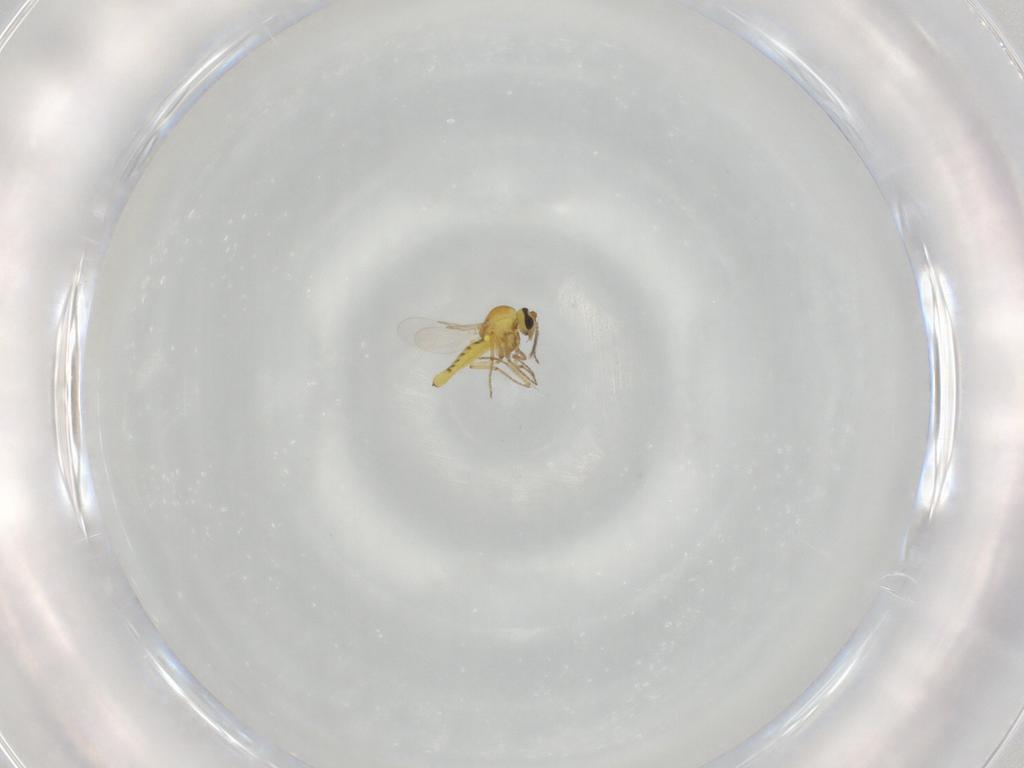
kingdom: Animalia
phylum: Arthropoda
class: Insecta
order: Diptera
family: Ceratopogonidae
